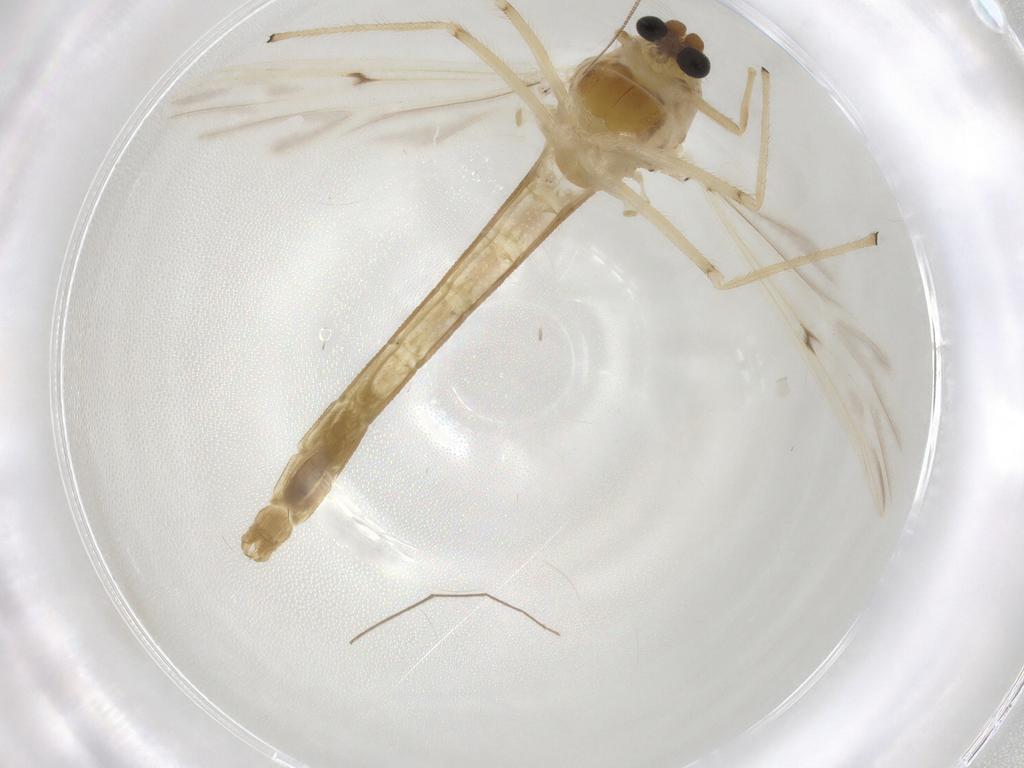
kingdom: Animalia
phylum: Arthropoda
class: Insecta
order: Diptera
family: Chironomidae
